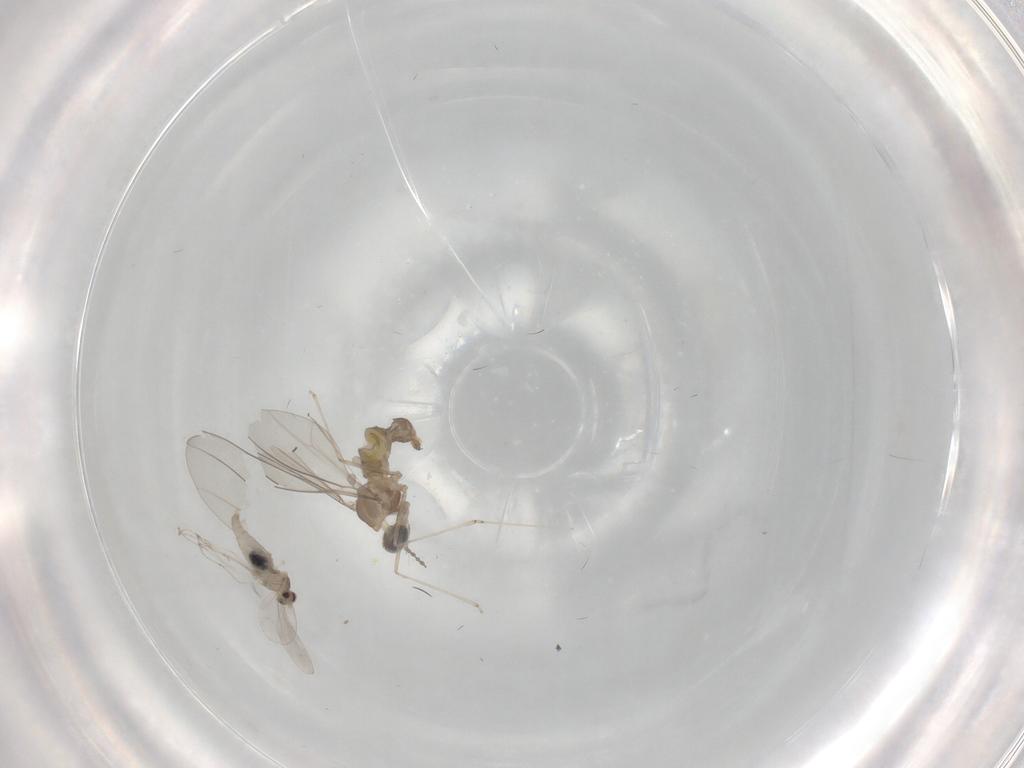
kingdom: Animalia
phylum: Arthropoda
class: Insecta
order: Diptera
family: Cecidomyiidae
